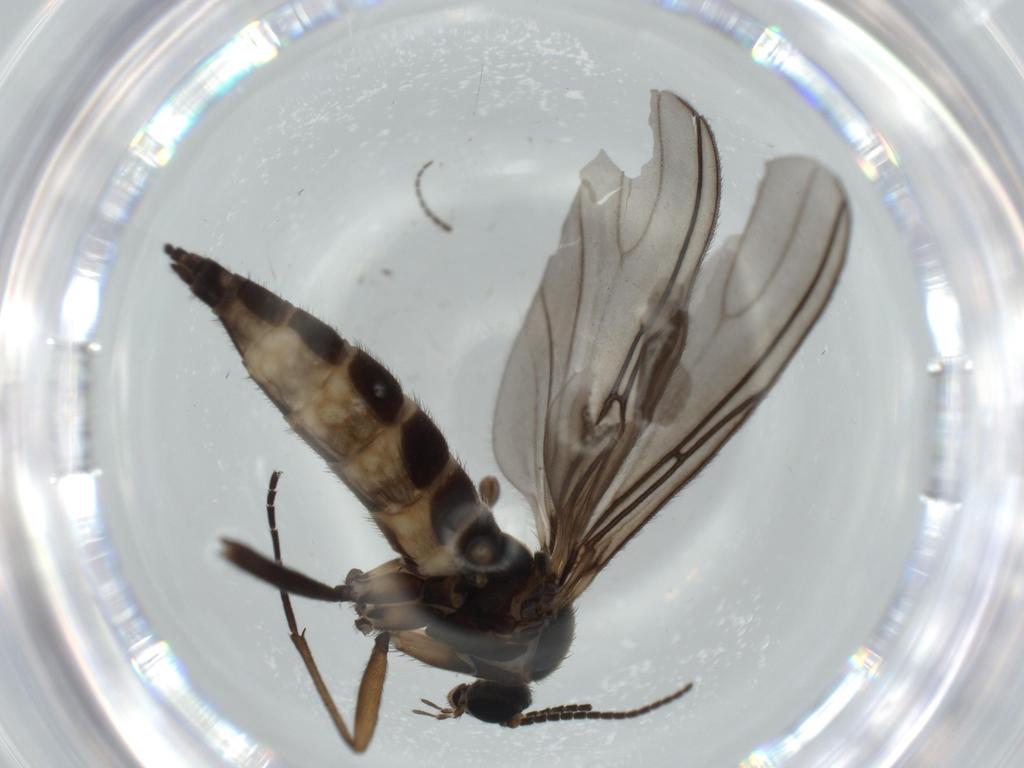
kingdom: Animalia
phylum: Arthropoda
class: Insecta
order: Diptera
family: Sciaridae
